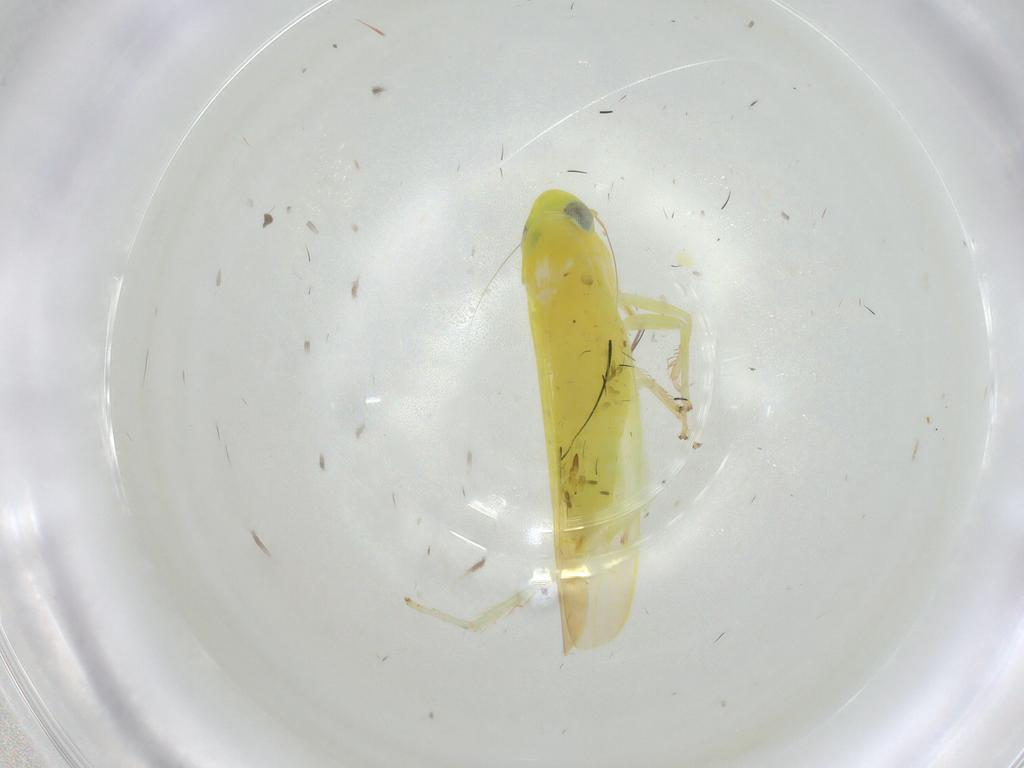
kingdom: Animalia
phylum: Arthropoda
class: Insecta
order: Hemiptera
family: Cicadellidae
